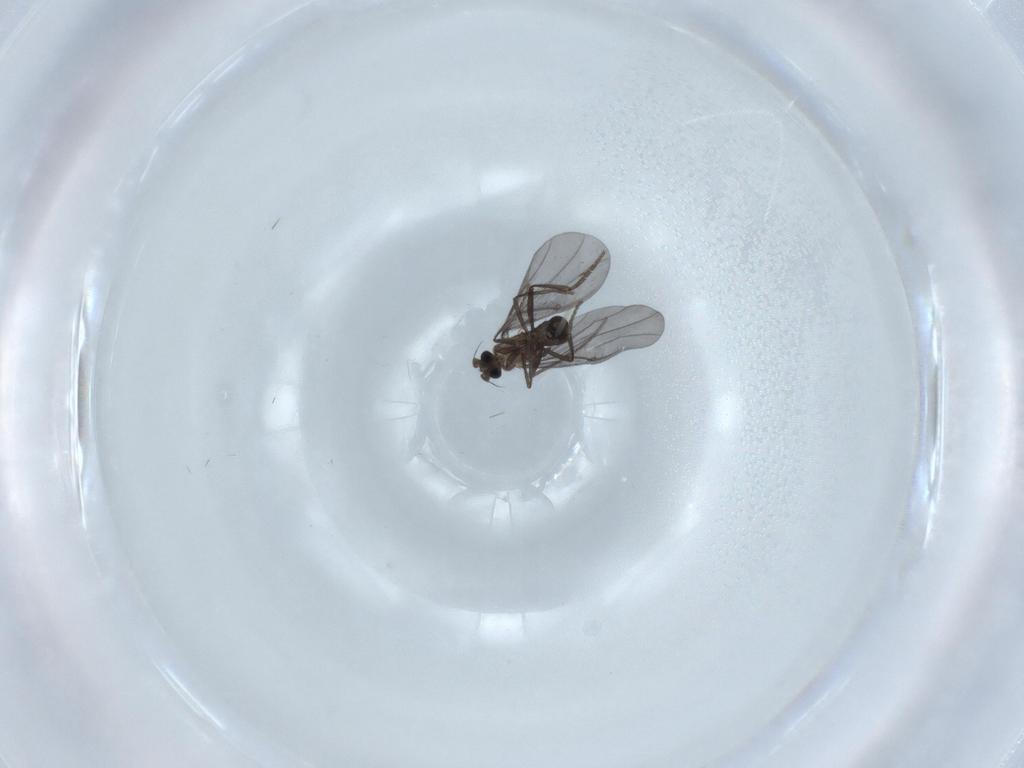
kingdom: Animalia
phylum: Arthropoda
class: Insecta
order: Diptera
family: Phoridae
